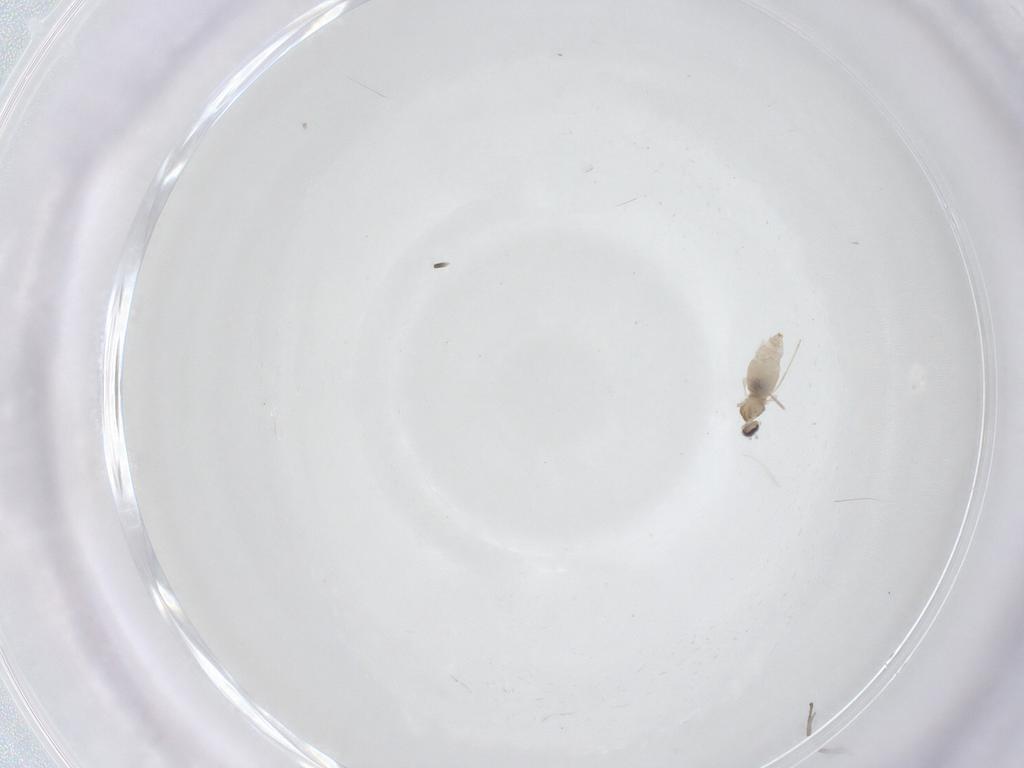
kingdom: Animalia
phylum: Arthropoda
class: Insecta
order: Diptera
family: Cecidomyiidae
